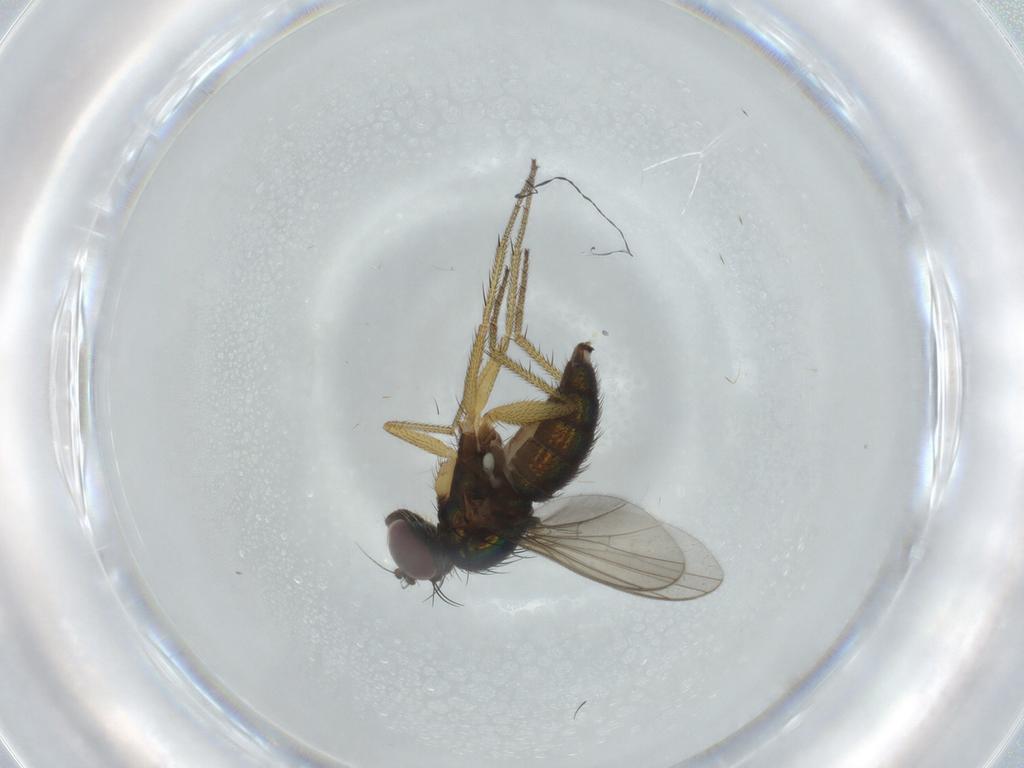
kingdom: Animalia
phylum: Arthropoda
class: Insecta
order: Diptera
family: Dolichopodidae
